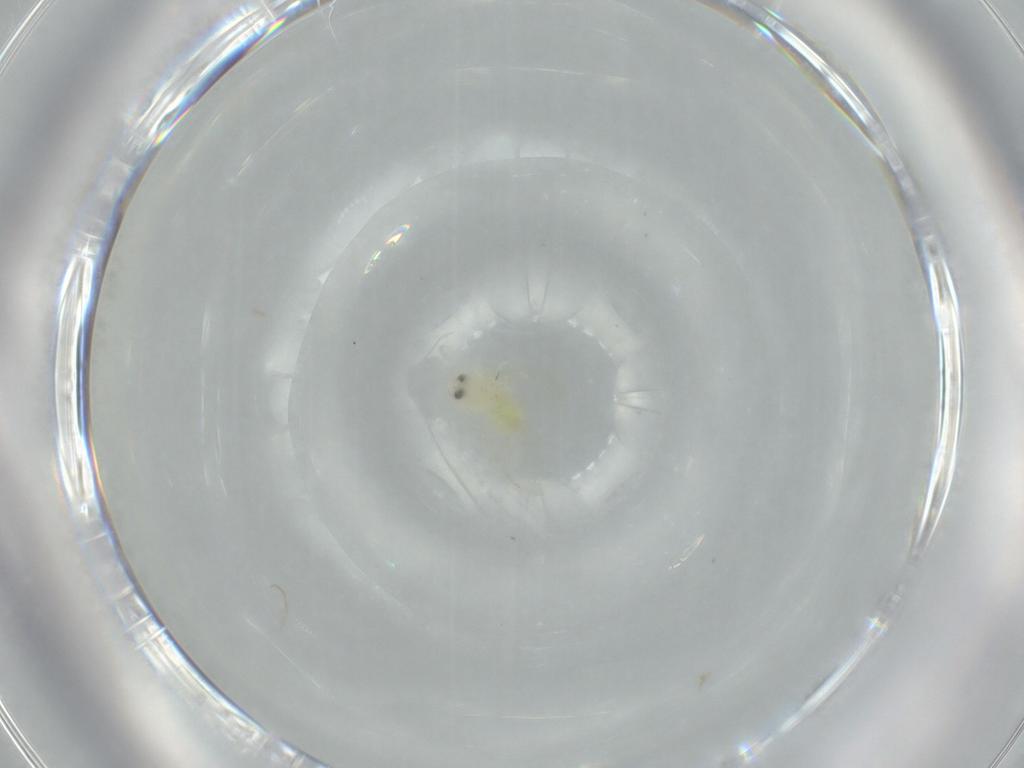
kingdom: Animalia
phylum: Arthropoda
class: Insecta
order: Hemiptera
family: Aleyrodidae
